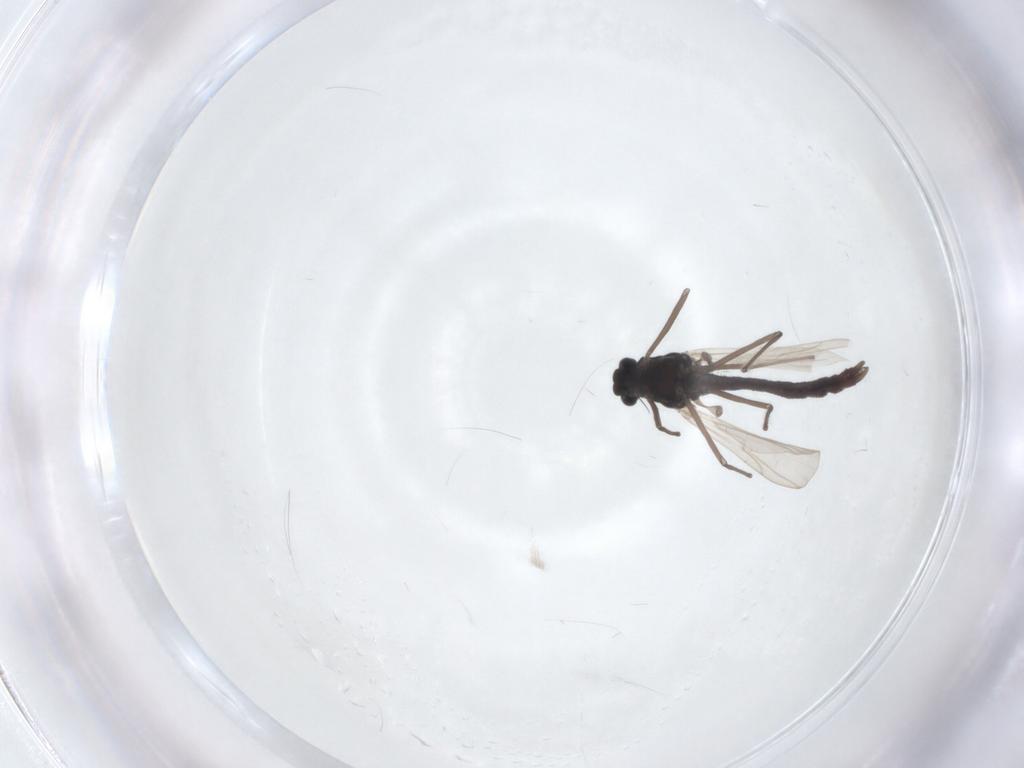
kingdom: Animalia
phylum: Arthropoda
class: Insecta
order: Diptera
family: Chironomidae
